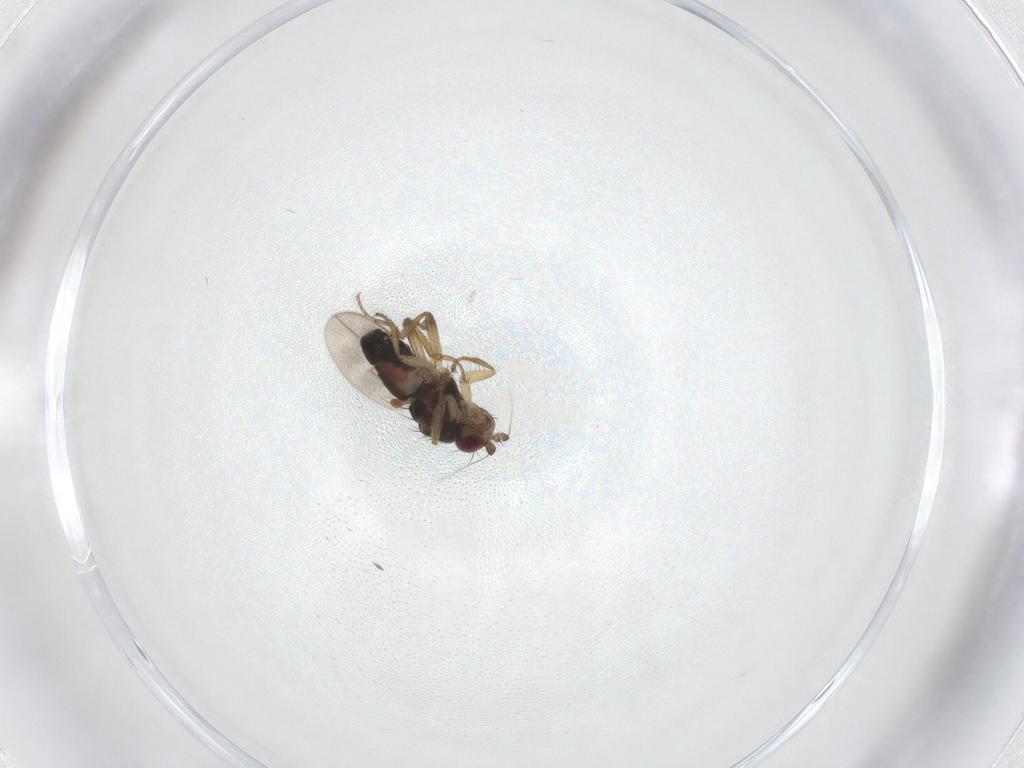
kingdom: Animalia
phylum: Arthropoda
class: Insecta
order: Diptera
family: Sphaeroceridae
